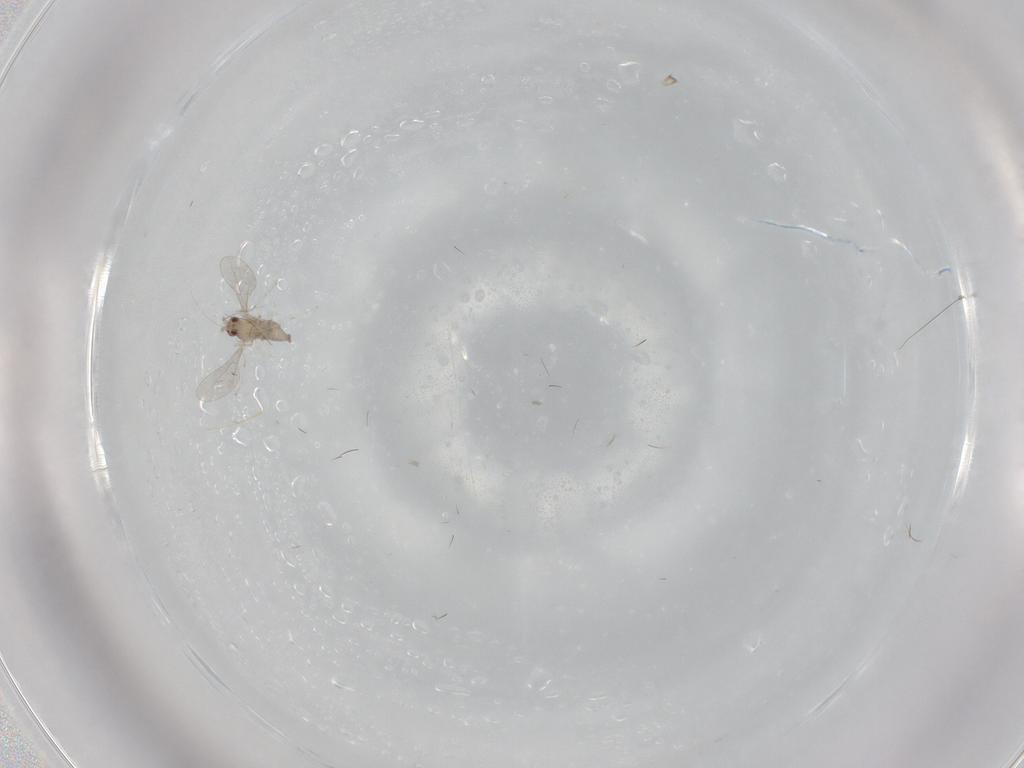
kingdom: Animalia
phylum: Arthropoda
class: Insecta
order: Diptera
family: Cecidomyiidae
